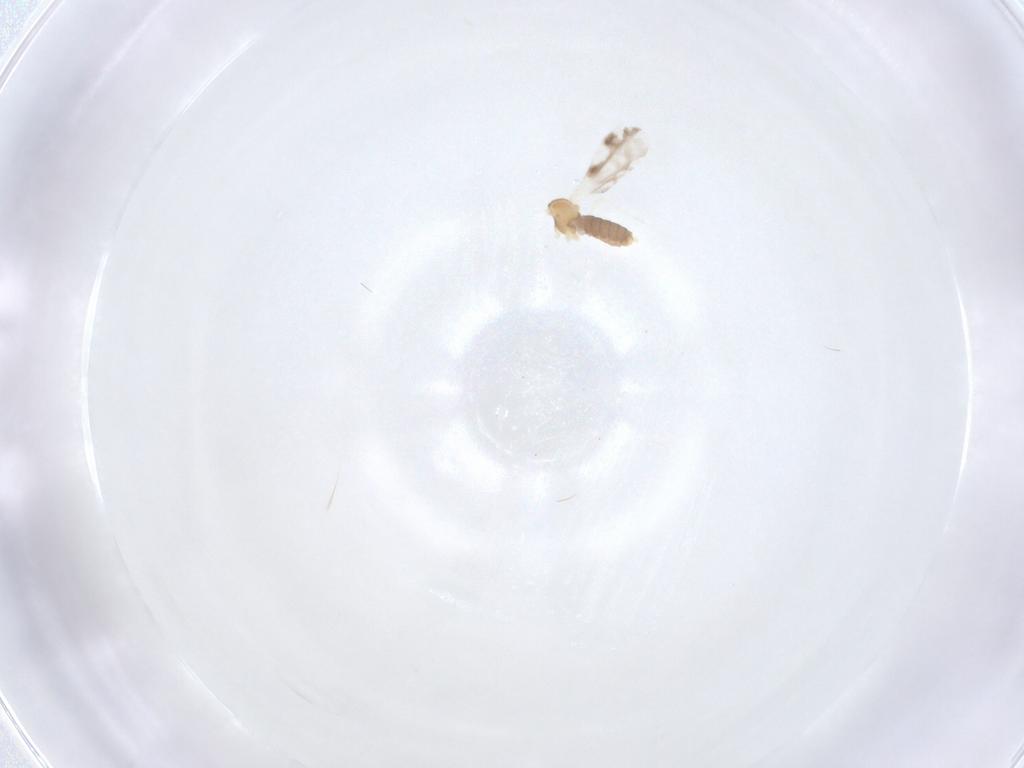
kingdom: Animalia
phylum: Arthropoda
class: Insecta
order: Diptera
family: Cecidomyiidae
